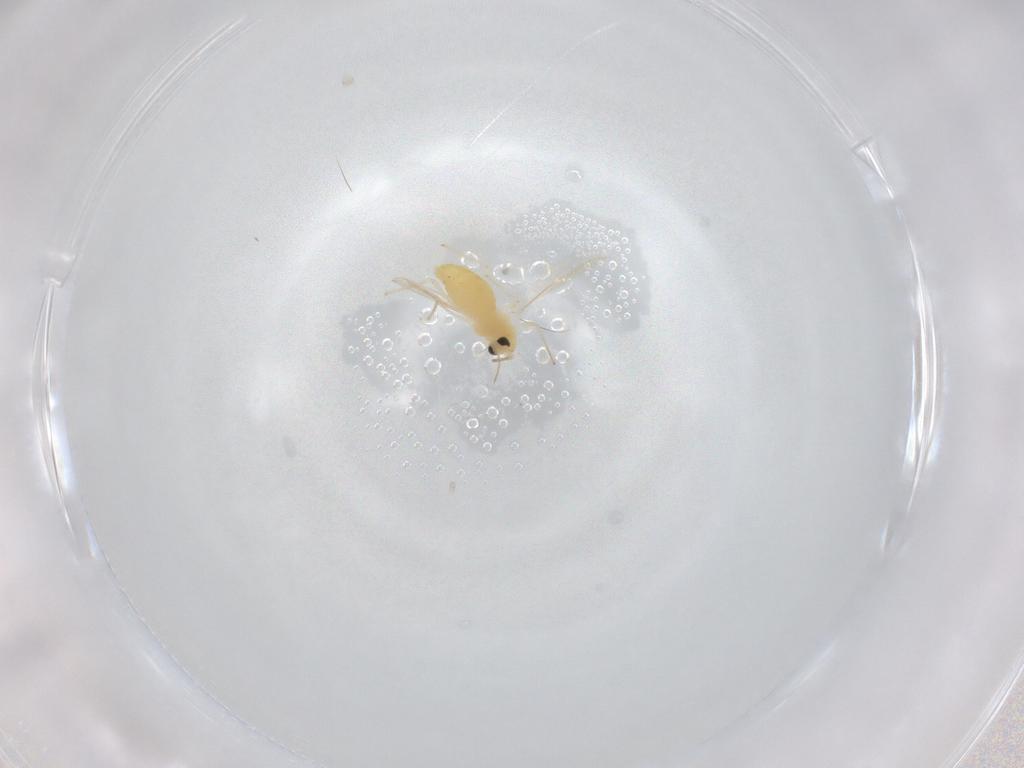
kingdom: Animalia
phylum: Arthropoda
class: Insecta
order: Diptera
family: Chironomidae
